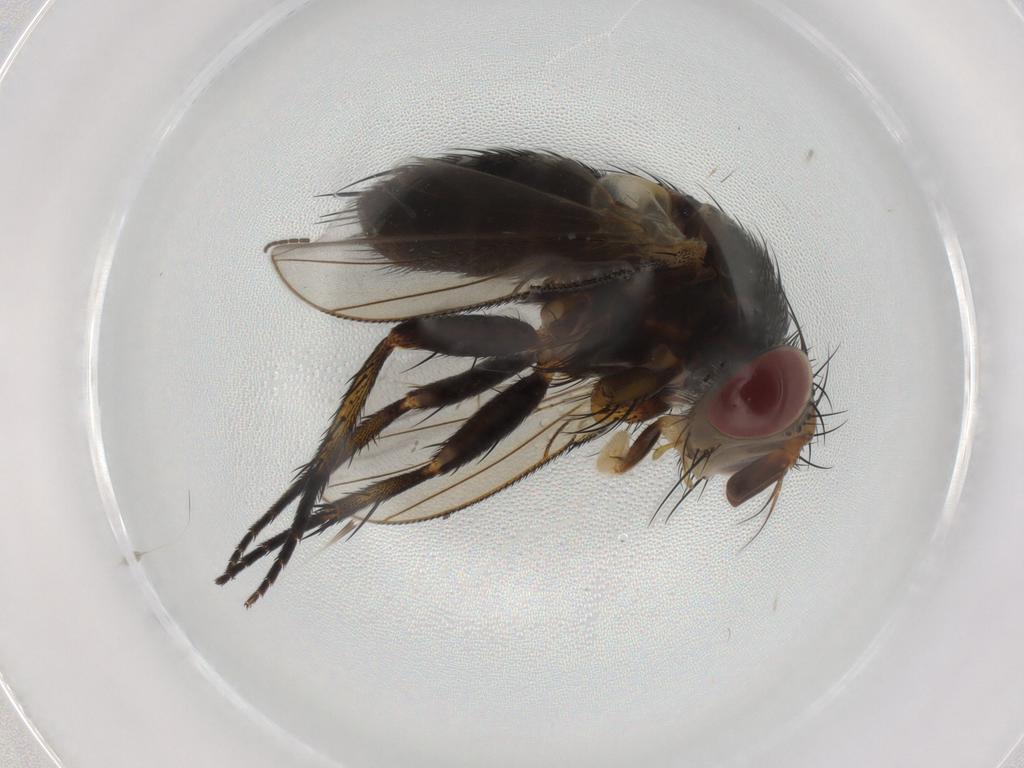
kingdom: Animalia
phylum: Arthropoda
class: Insecta
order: Diptera
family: Tachinidae
